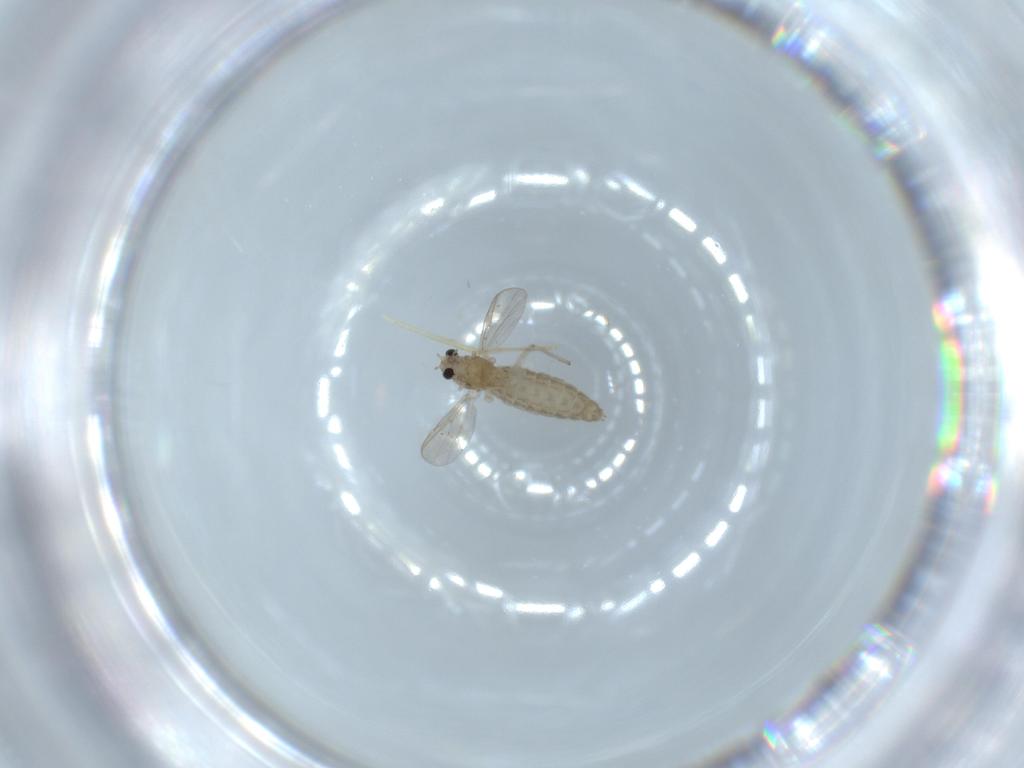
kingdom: Animalia
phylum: Arthropoda
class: Insecta
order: Diptera
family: Chironomidae
